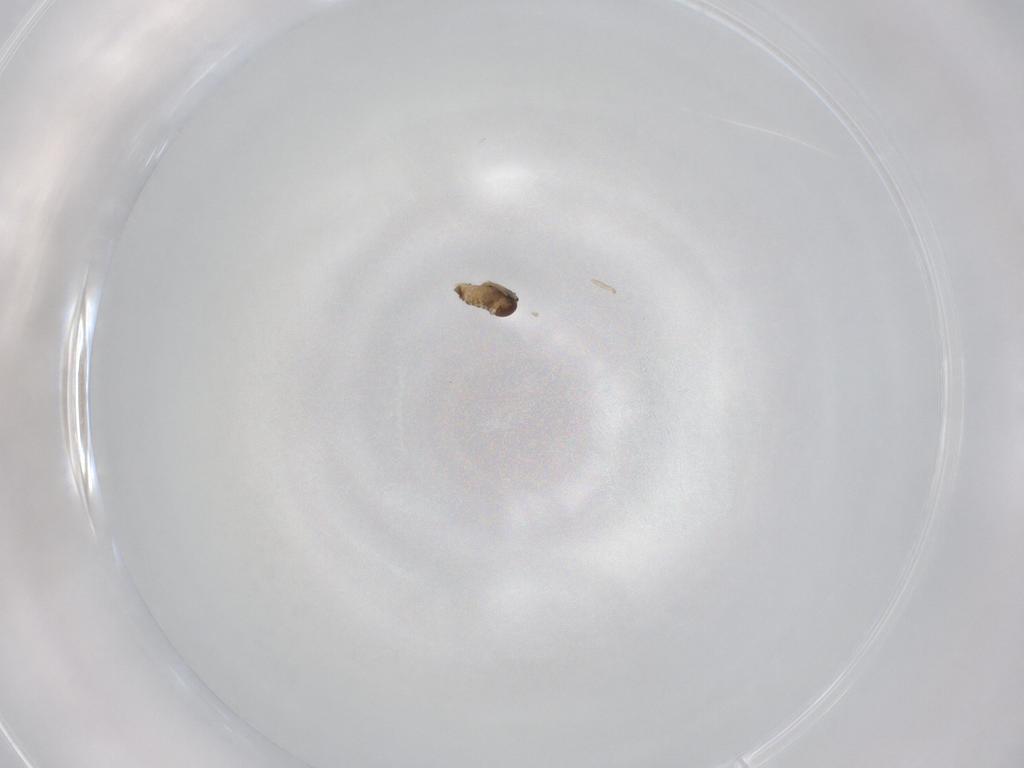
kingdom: Animalia
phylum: Arthropoda
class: Insecta
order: Diptera
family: Cecidomyiidae
